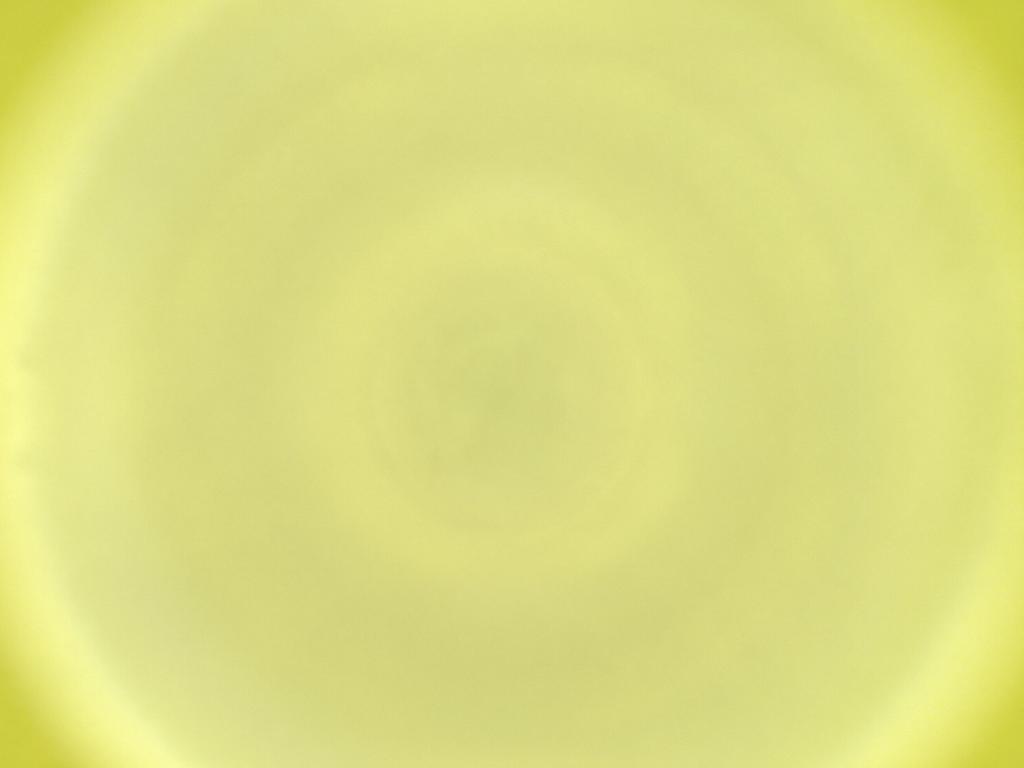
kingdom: Animalia
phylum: Arthropoda
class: Insecta
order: Diptera
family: Cecidomyiidae
